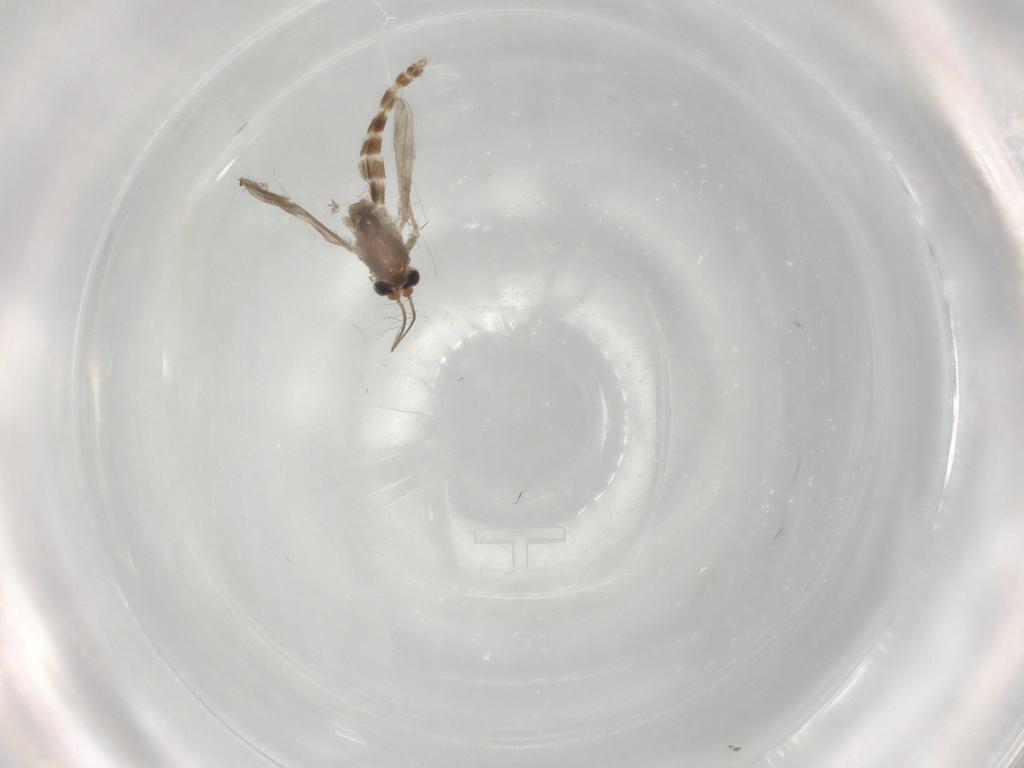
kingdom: Animalia
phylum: Arthropoda
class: Insecta
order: Diptera
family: Chironomidae
